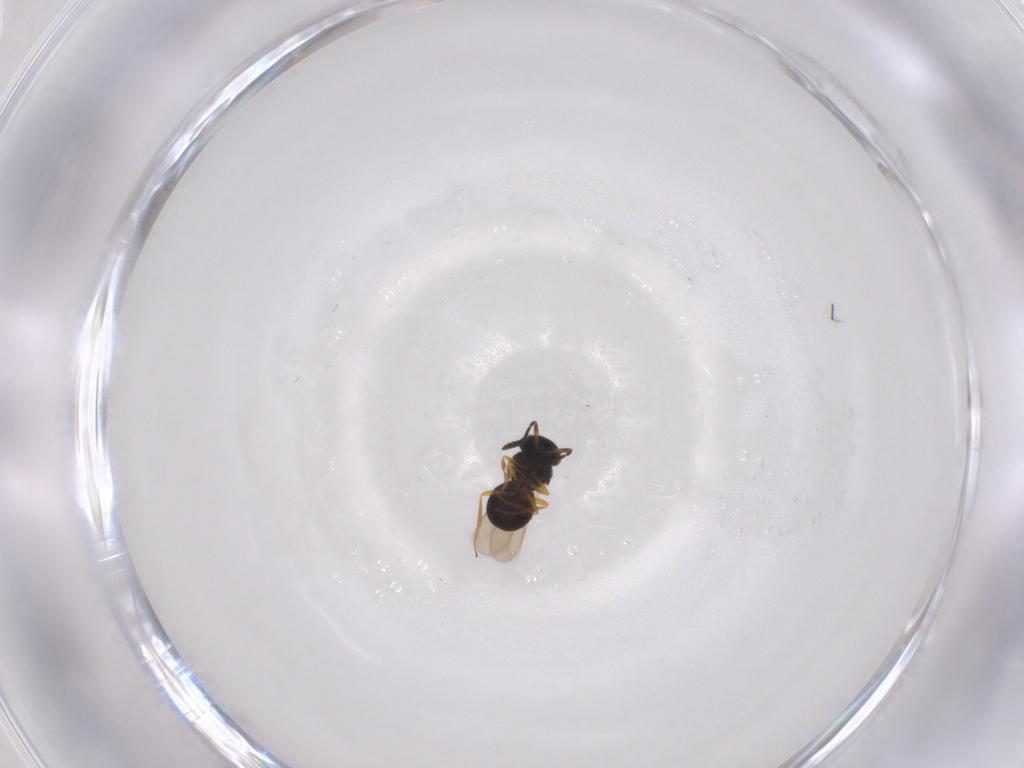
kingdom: Animalia
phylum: Arthropoda
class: Insecta
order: Hymenoptera
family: Scelionidae
